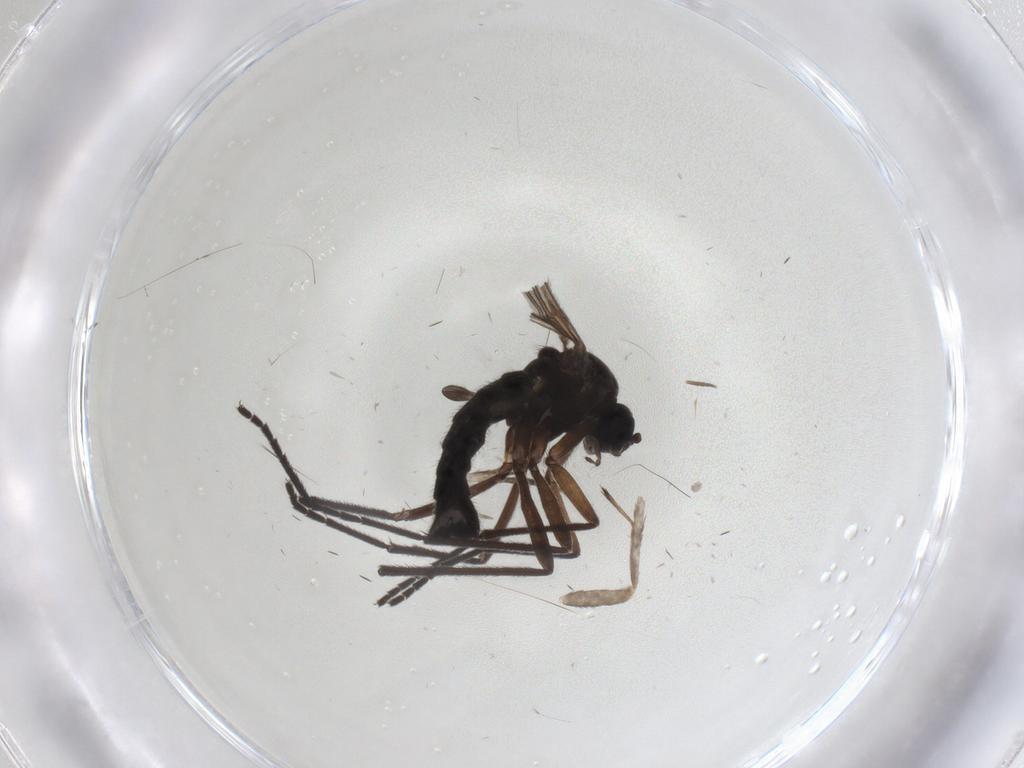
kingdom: Animalia
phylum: Arthropoda
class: Insecta
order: Diptera
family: Sciaridae
